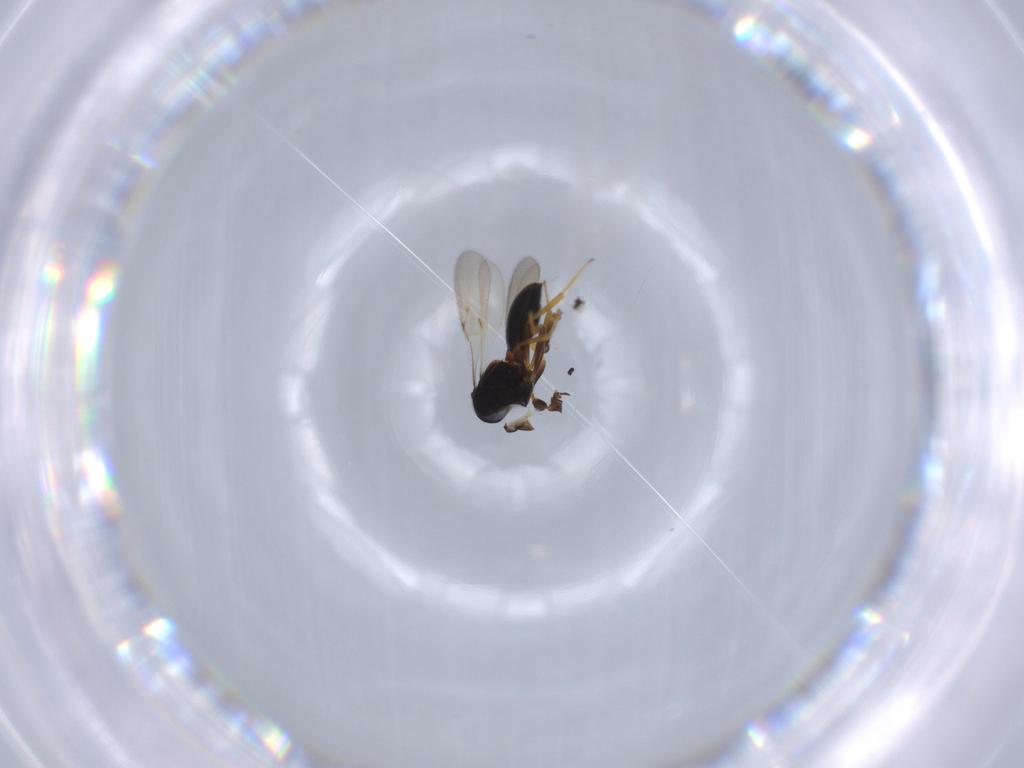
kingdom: Animalia
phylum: Arthropoda
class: Insecta
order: Hymenoptera
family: Scelionidae
